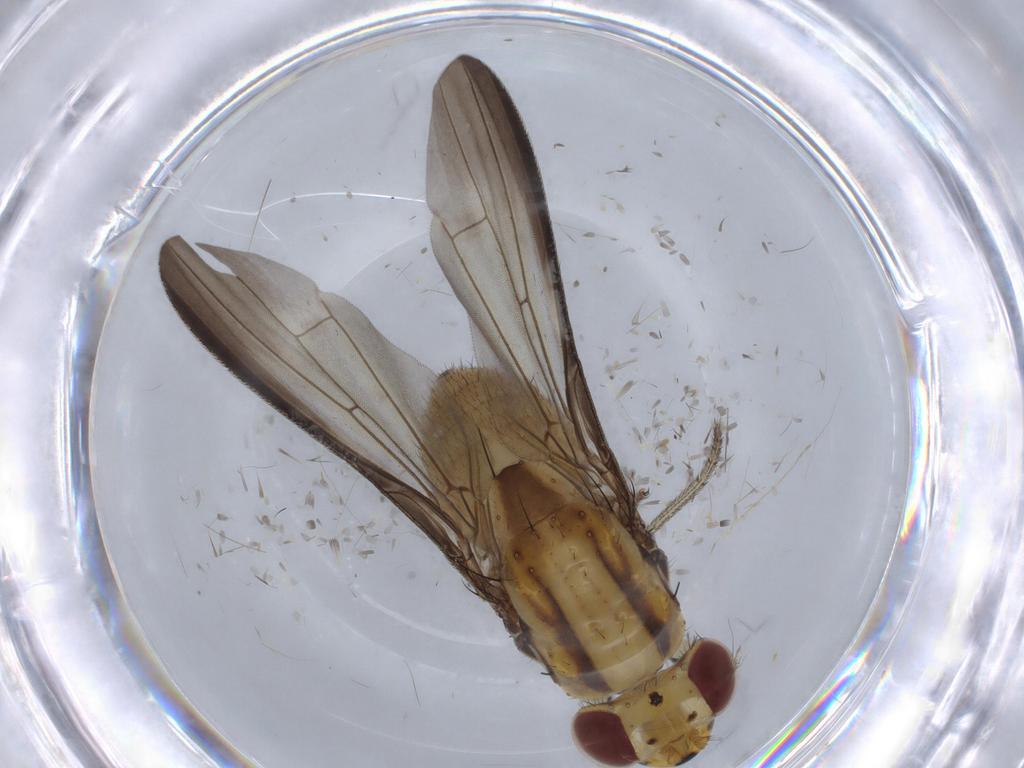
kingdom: Animalia
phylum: Arthropoda
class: Insecta
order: Diptera
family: Lauxaniidae
